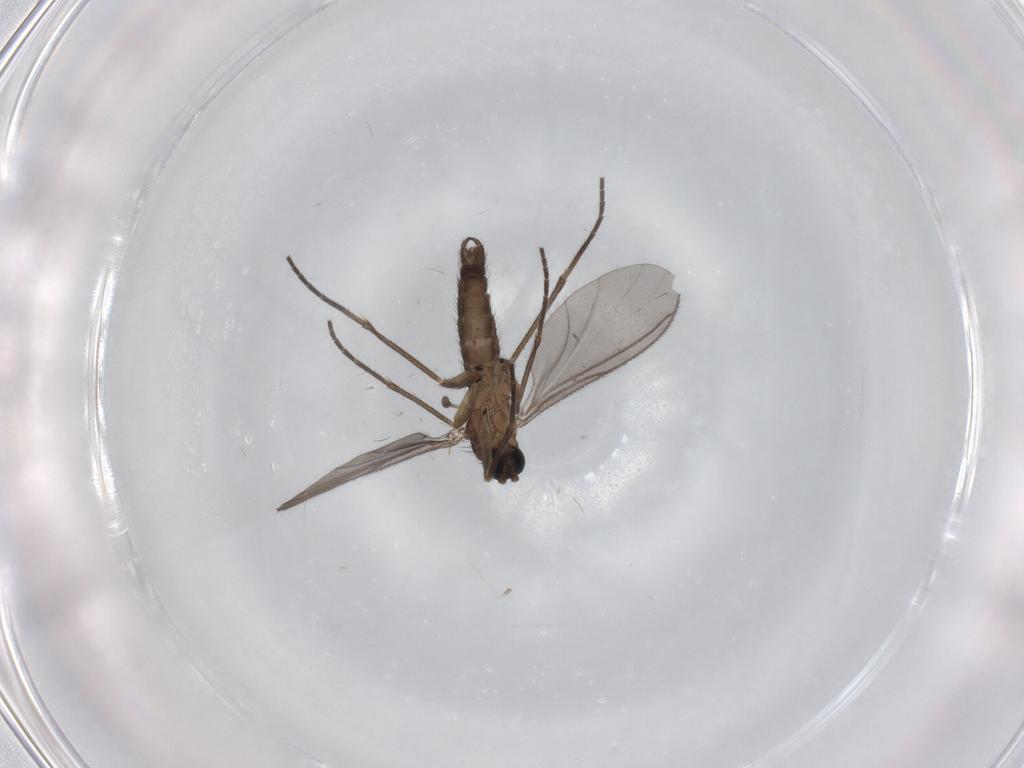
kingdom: Animalia
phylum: Arthropoda
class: Insecta
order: Diptera
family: Sciaridae
